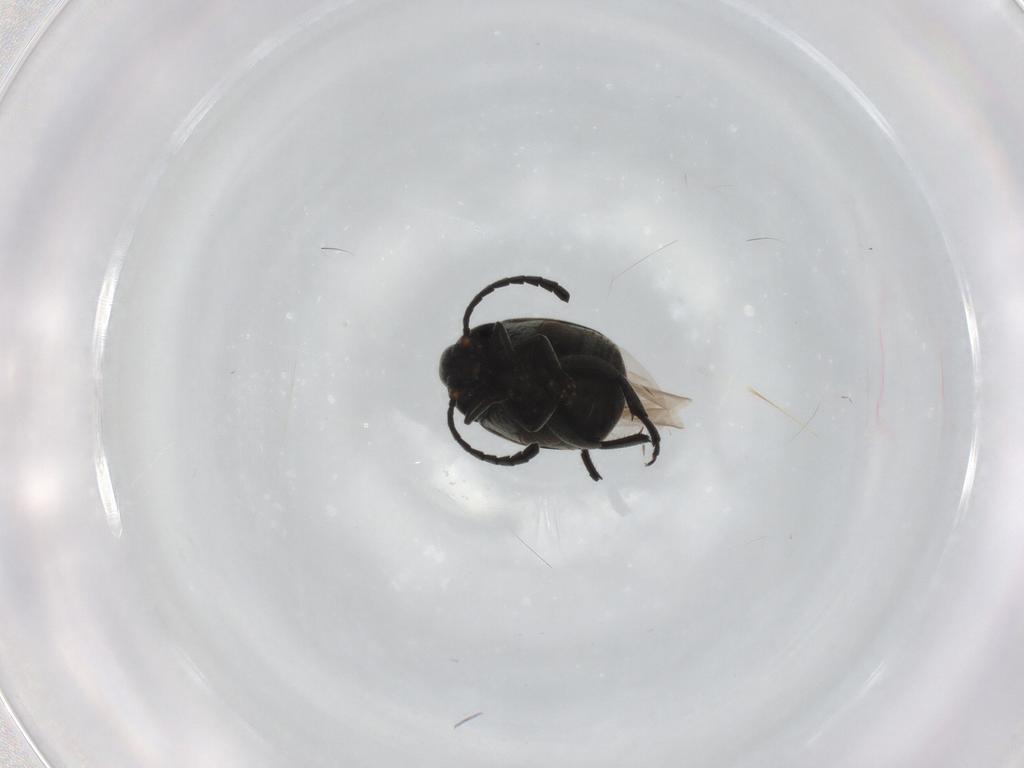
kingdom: Animalia
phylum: Arthropoda
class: Insecta
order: Coleoptera
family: Chrysomelidae
